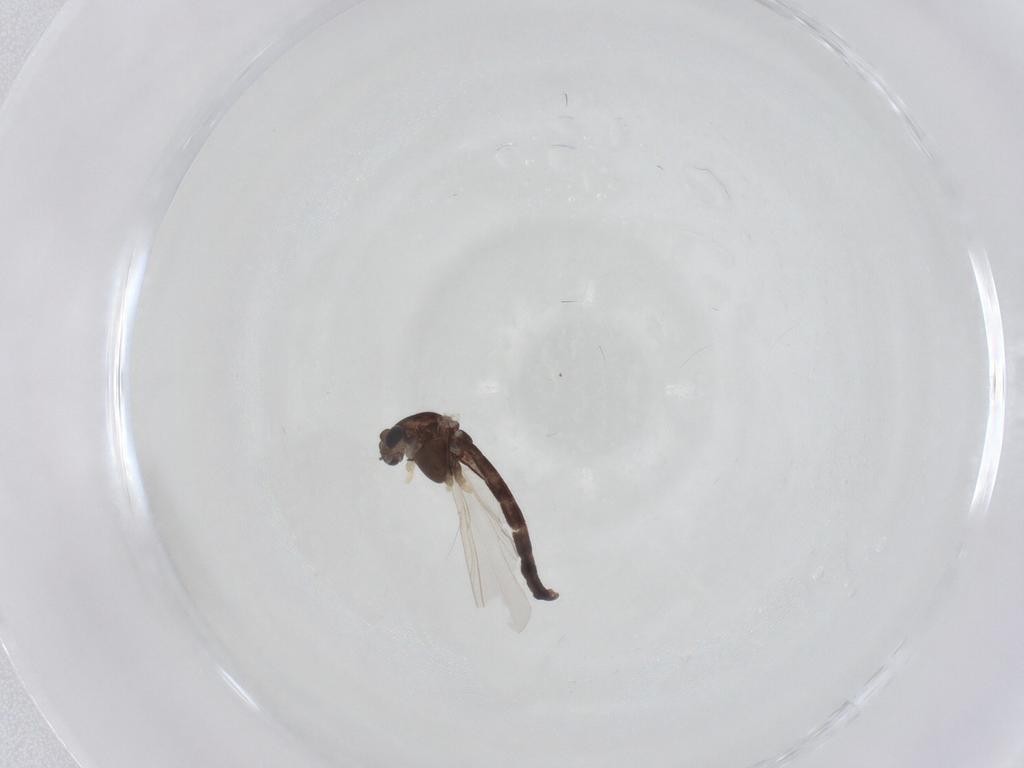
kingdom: Animalia
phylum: Arthropoda
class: Insecta
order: Diptera
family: Chironomidae
